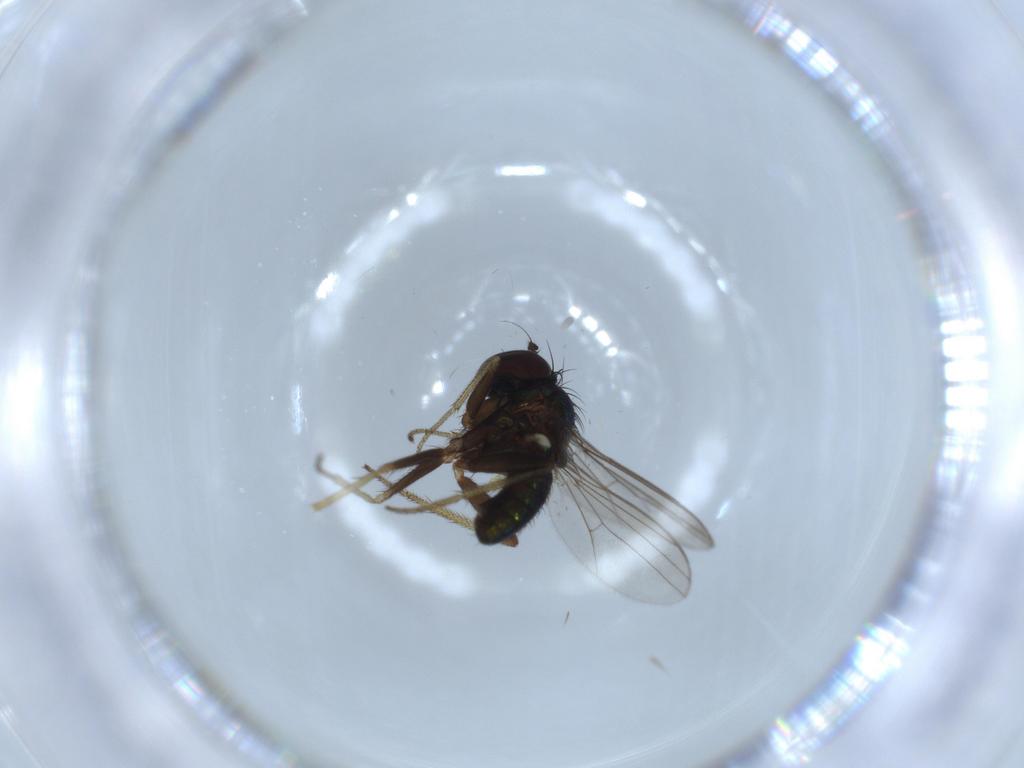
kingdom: Animalia
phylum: Arthropoda
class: Insecta
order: Diptera
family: Dolichopodidae
